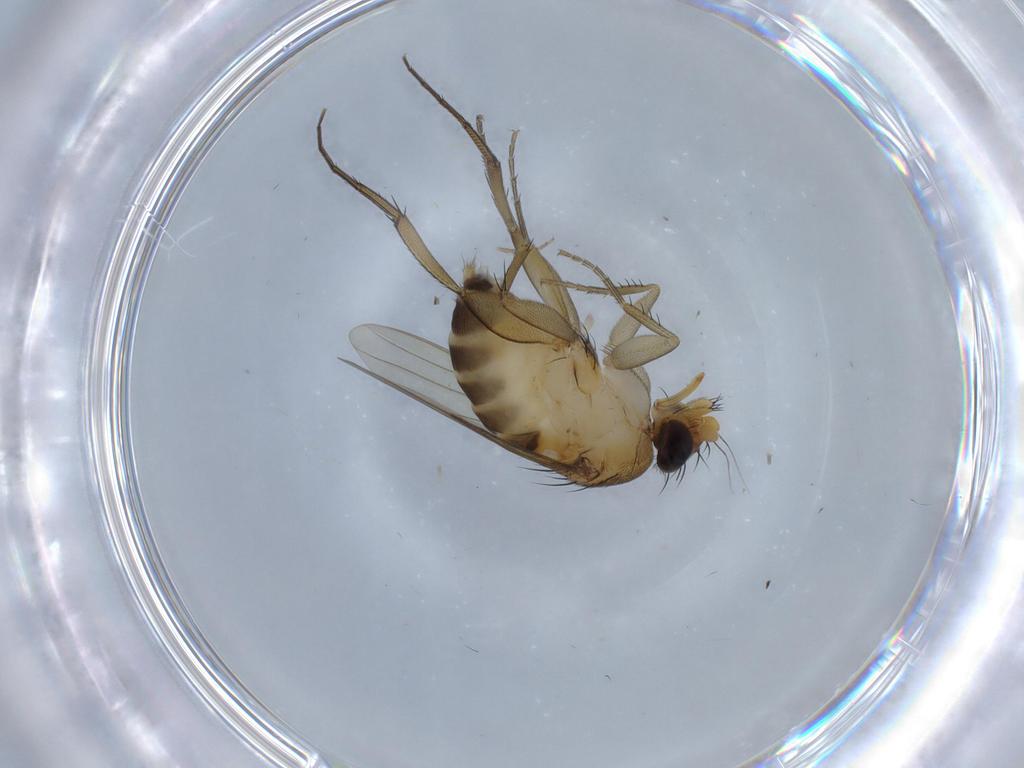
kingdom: Animalia
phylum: Arthropoda
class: Insecta
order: Diptera
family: Phoridae
